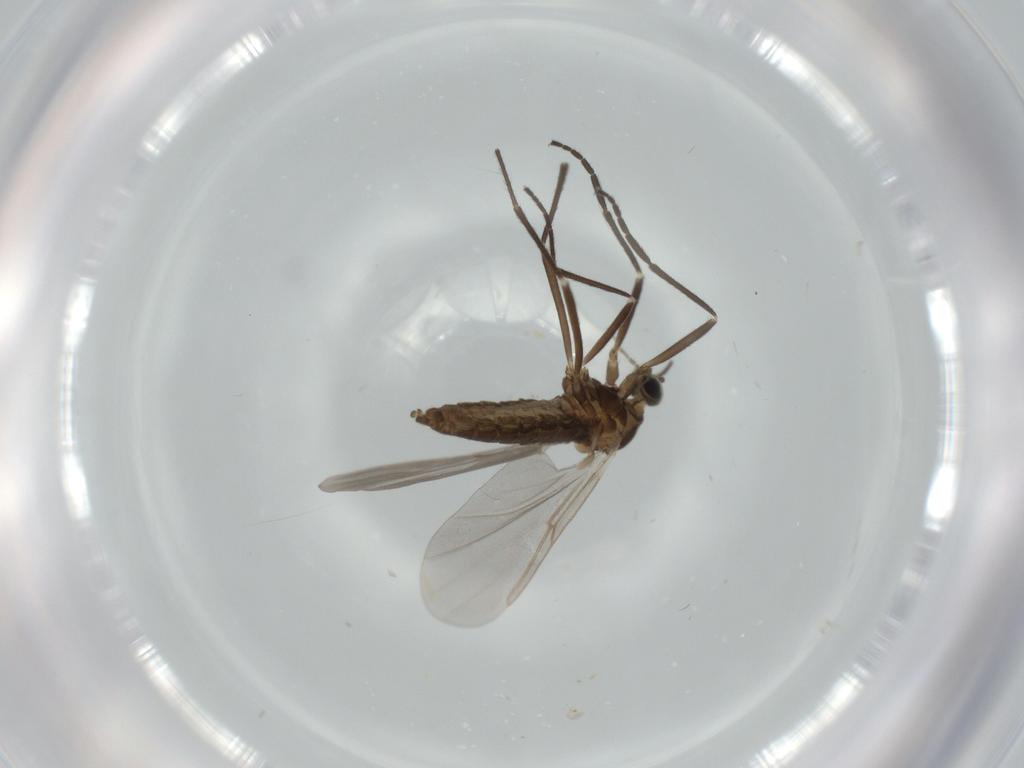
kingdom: Animalia
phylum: Arthropoda
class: Insecta
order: Diptera
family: Cecidomyiidae
